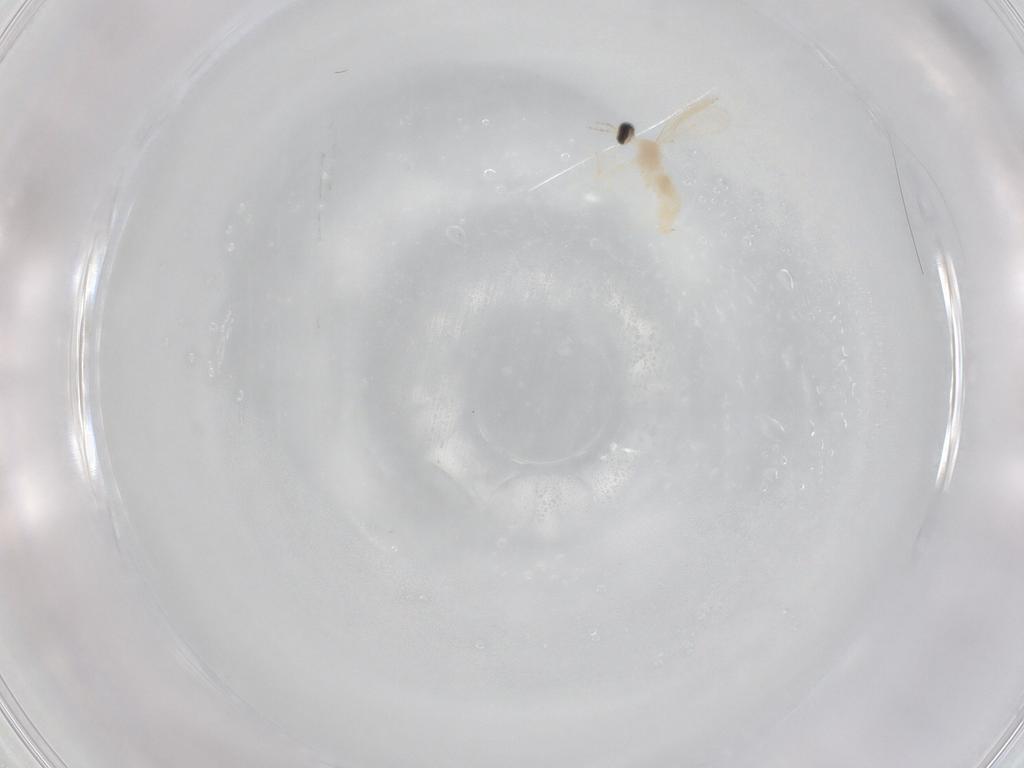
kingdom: Animalia
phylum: Arthropoda
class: Insecta
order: Diptera
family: Cecidomyiidae
